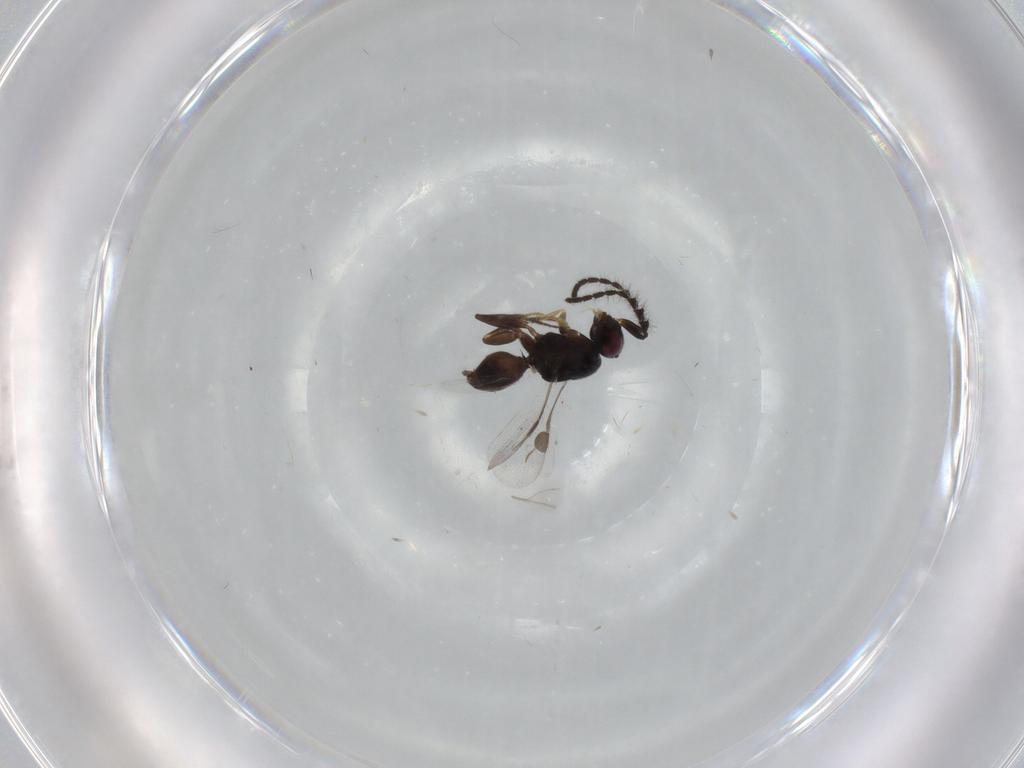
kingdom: Animalia
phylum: Arthropoda
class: Insecta
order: Hymenoptera
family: Megaspilidae
